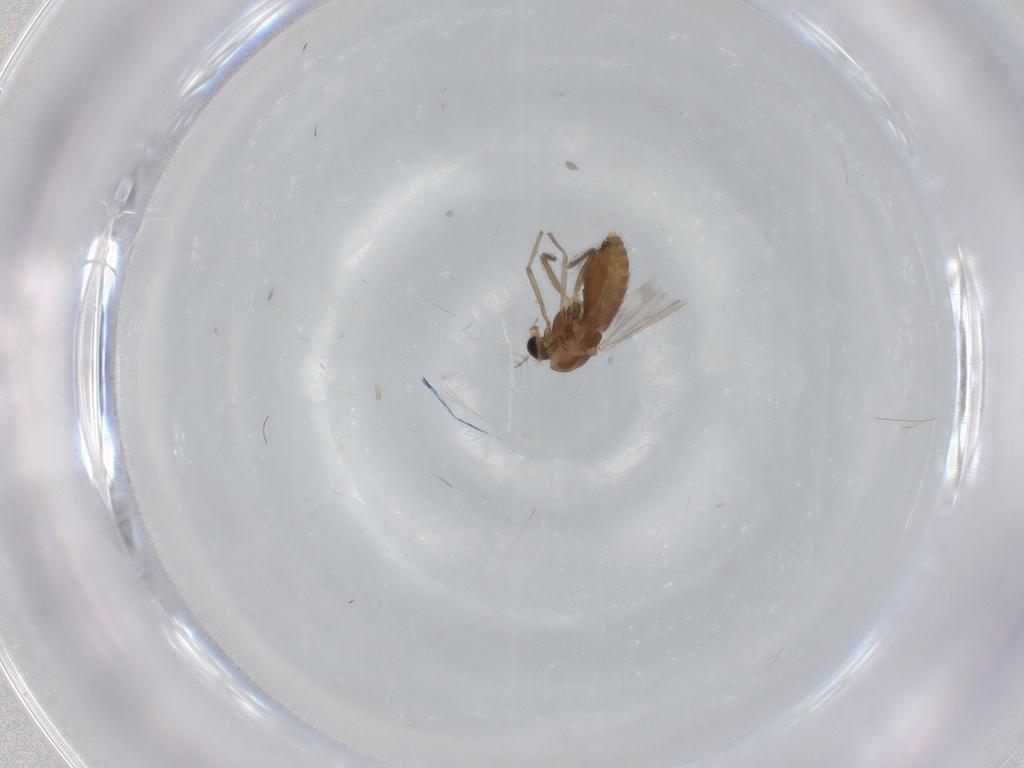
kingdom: Animalia
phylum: Arthropoda
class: Insecta
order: Diptera
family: Chironomidae
